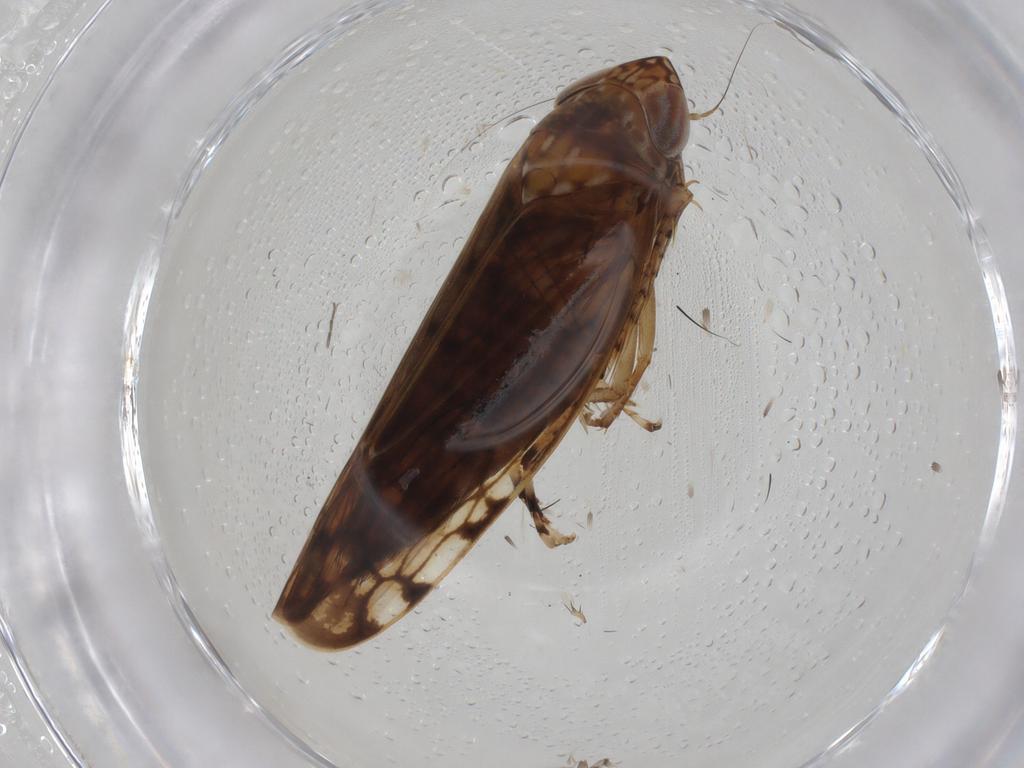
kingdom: Animalia
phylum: Arthropoda
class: Insecta
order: Hemiptera
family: Cicadellidae
